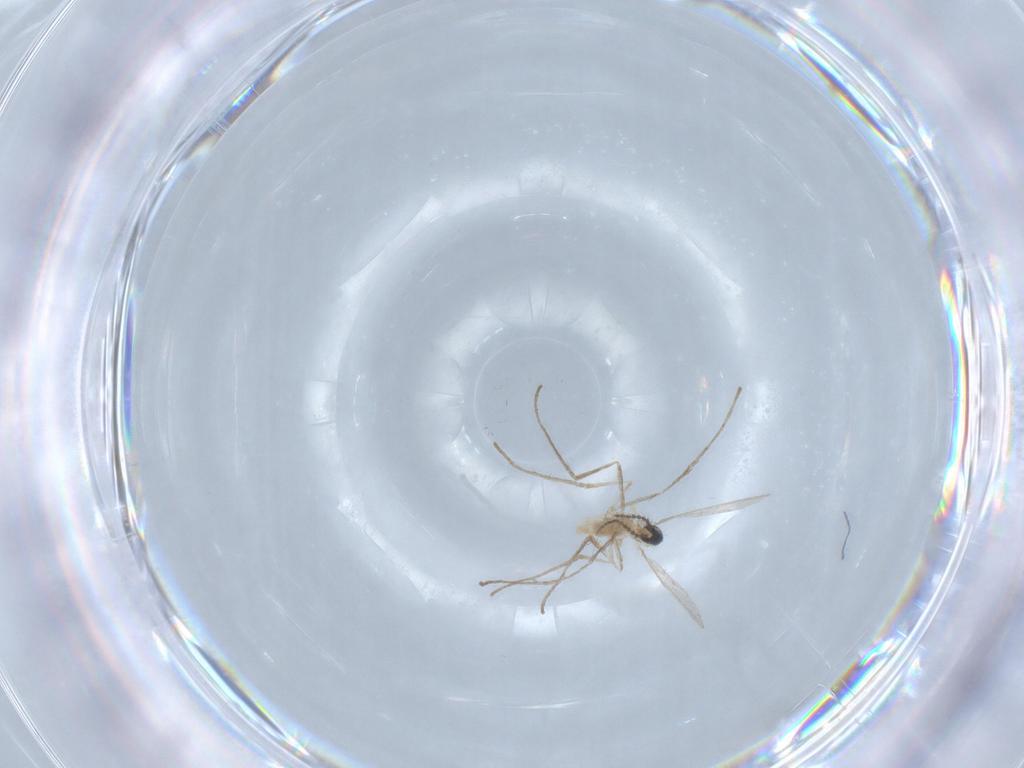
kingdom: Animalia
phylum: Arthropoda
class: Insecta
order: Diptera
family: Cecidomyiidae
